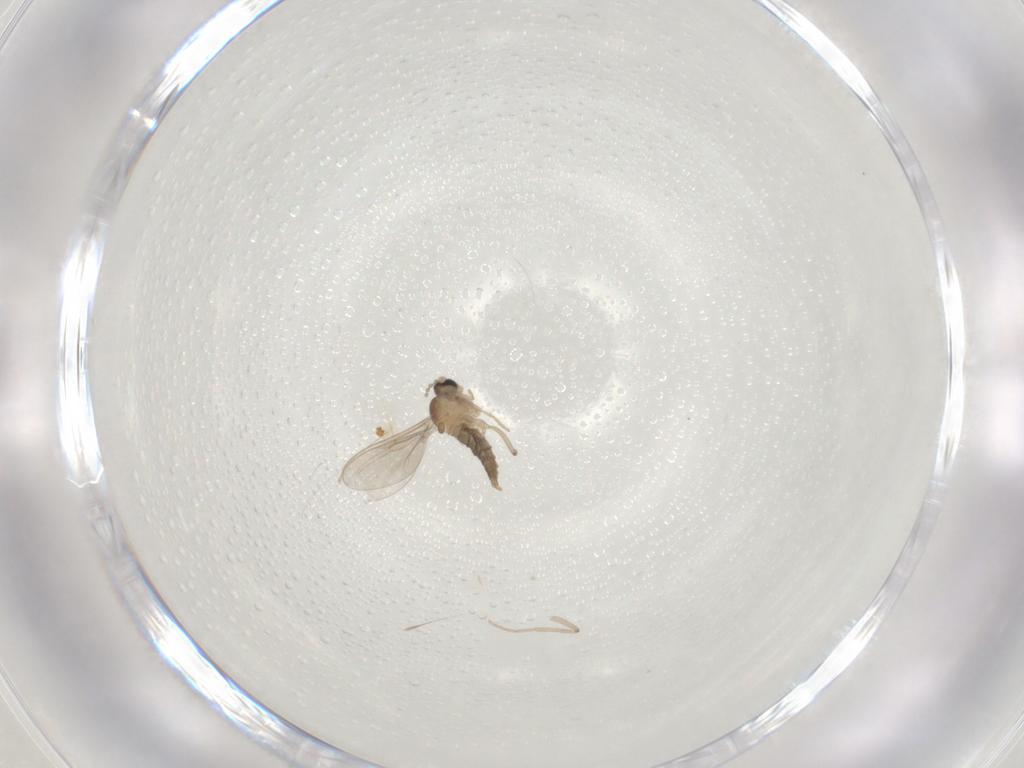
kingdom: Animalia
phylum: Arthropoda
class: Insecta
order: Diptera
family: Cecidomyiidae
